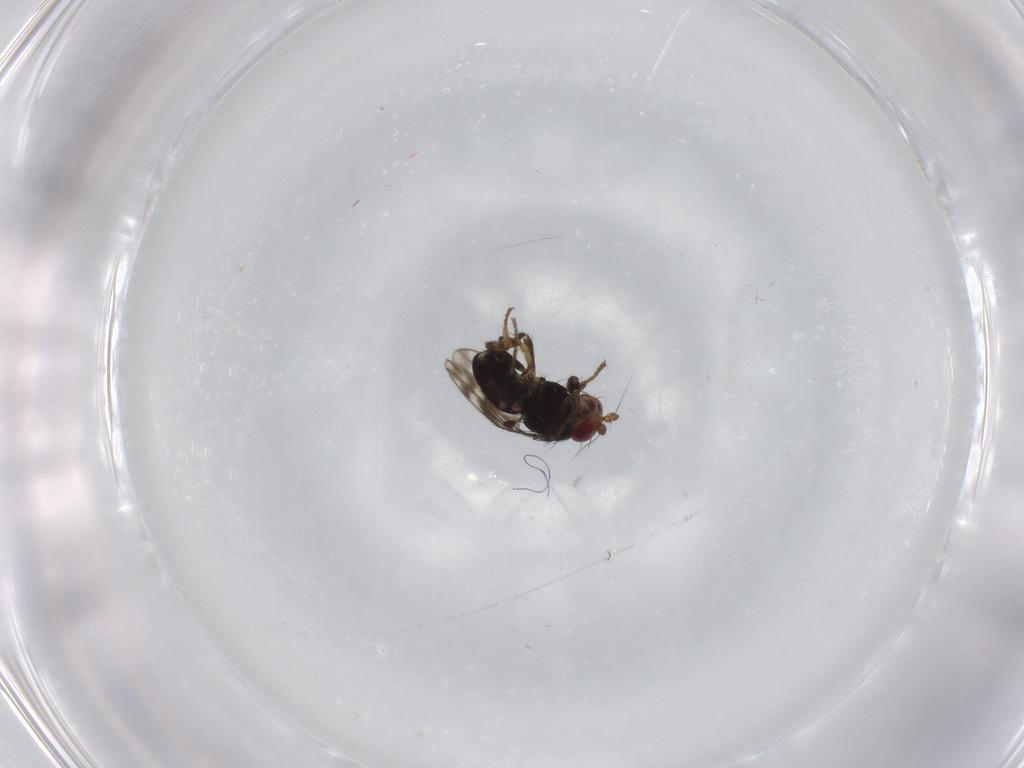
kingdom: Animalia
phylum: Arthropoda
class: Insecta
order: Diptera
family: Sphaeroceridae
